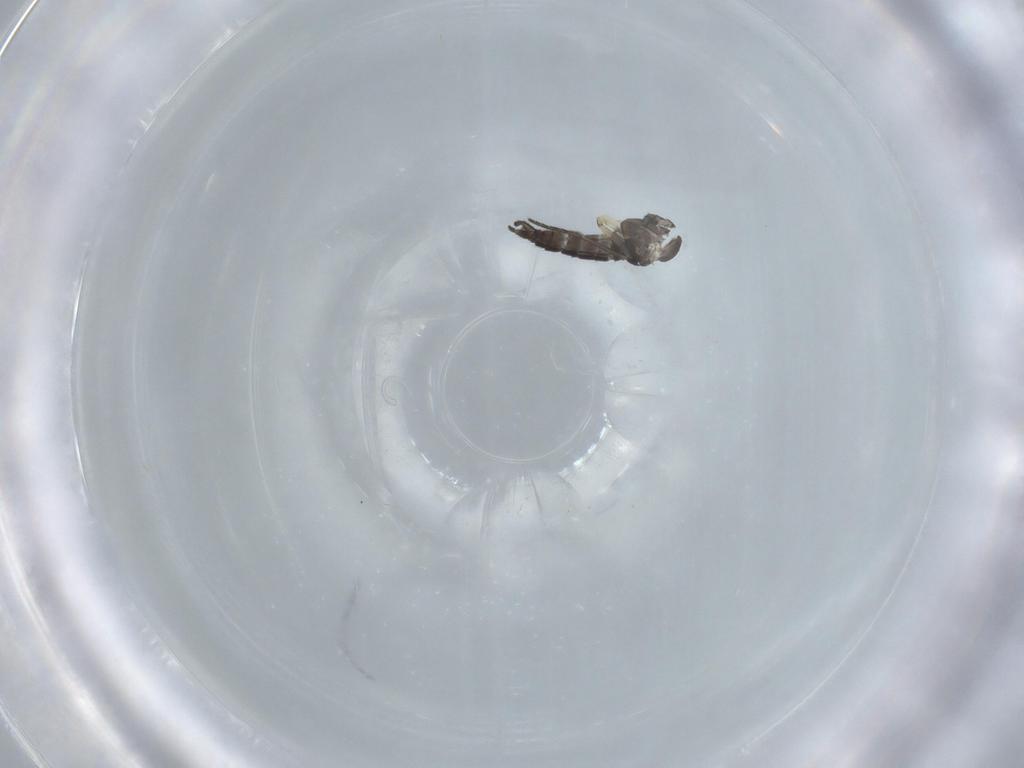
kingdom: Animalia
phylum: Arthropoda
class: Insecta
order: Diptera
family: Sciaridae
